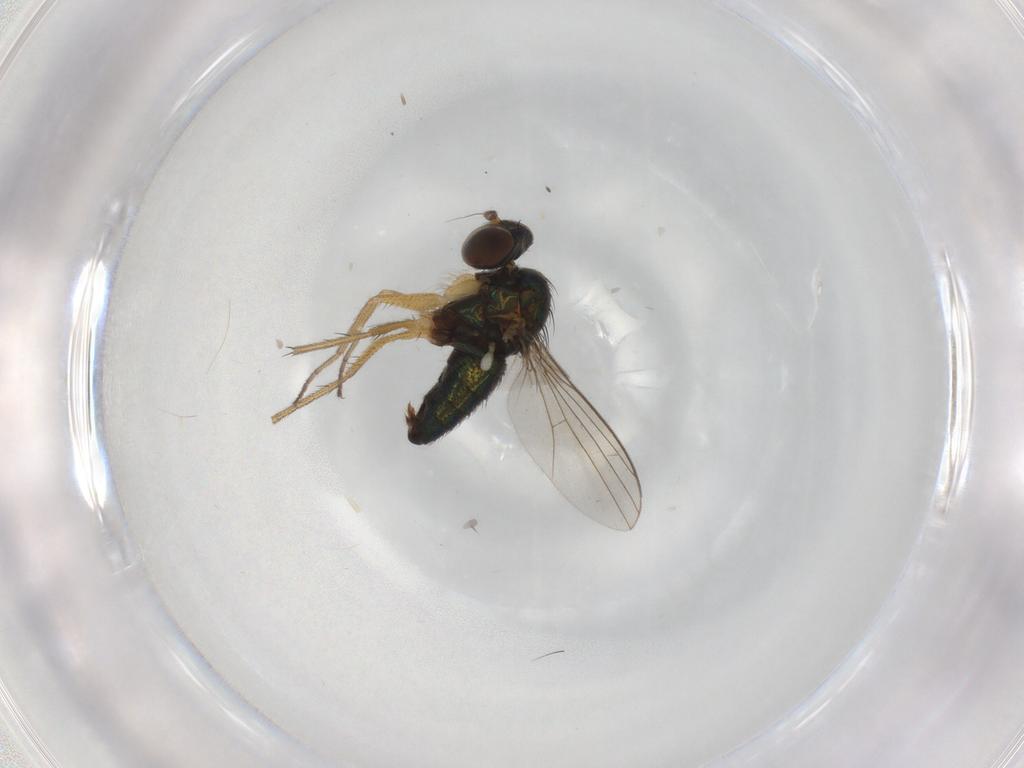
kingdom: Animalia
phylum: Arthropoda
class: Insecta
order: Diptera
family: Dolichopodidae
